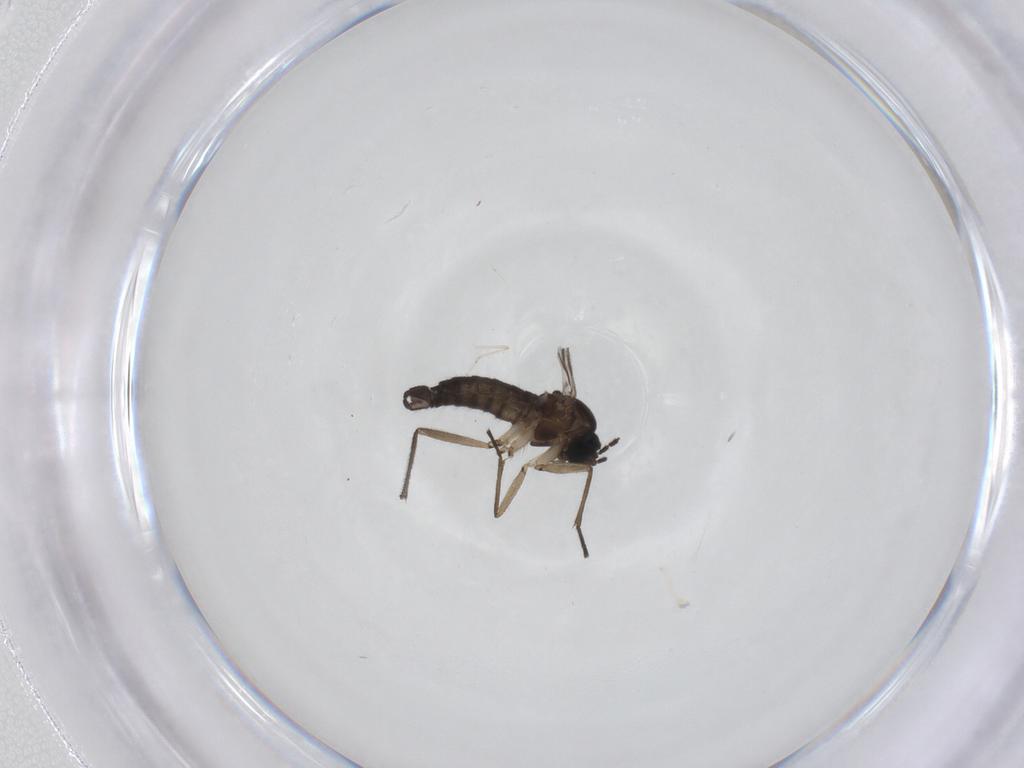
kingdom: Animalia
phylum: Arthropoda
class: Insecta
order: Diptera
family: Sciaridae
